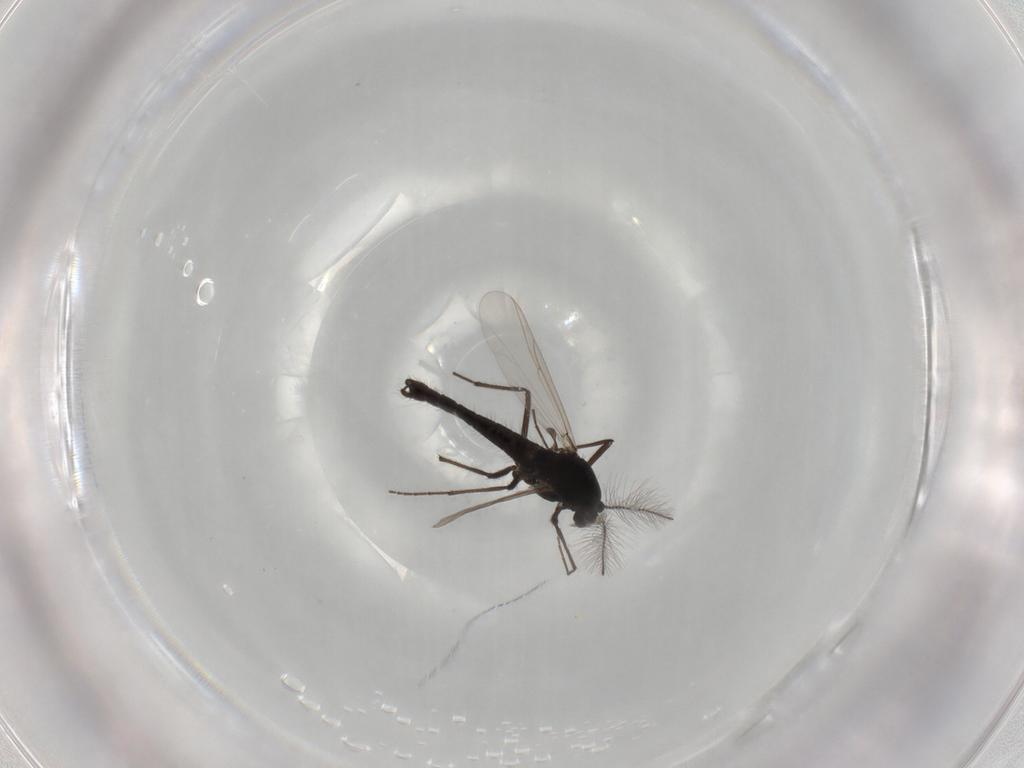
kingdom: Animalia
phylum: Arthropoda
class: Insecta
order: Diptera
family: Chironomidae
